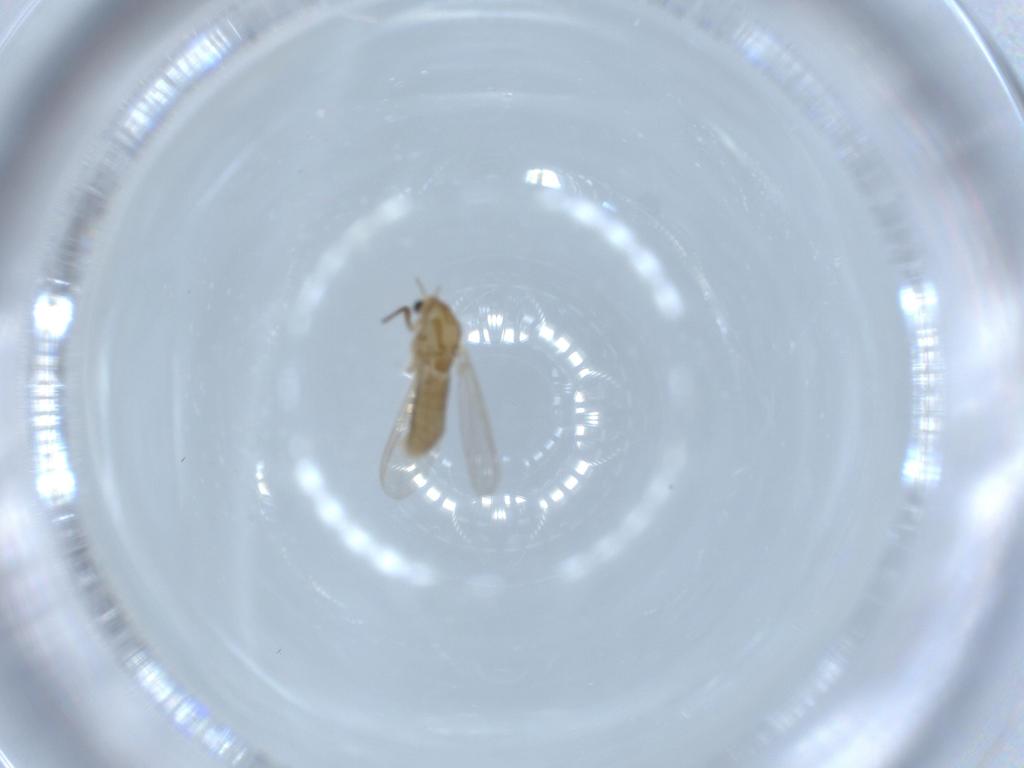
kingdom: Animalia
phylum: Arthropoda
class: Insecta
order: Diptera
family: Chironomidae
